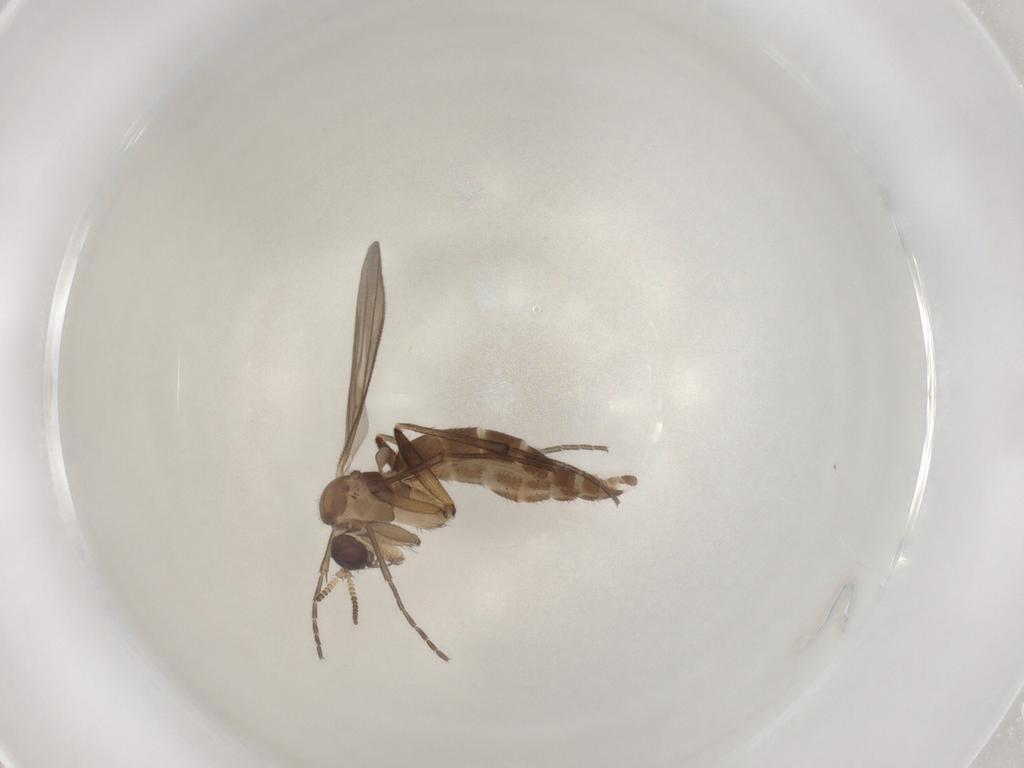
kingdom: Animalia
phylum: Arthropoda
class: Insecta
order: Diptera
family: Mycetophilidae
